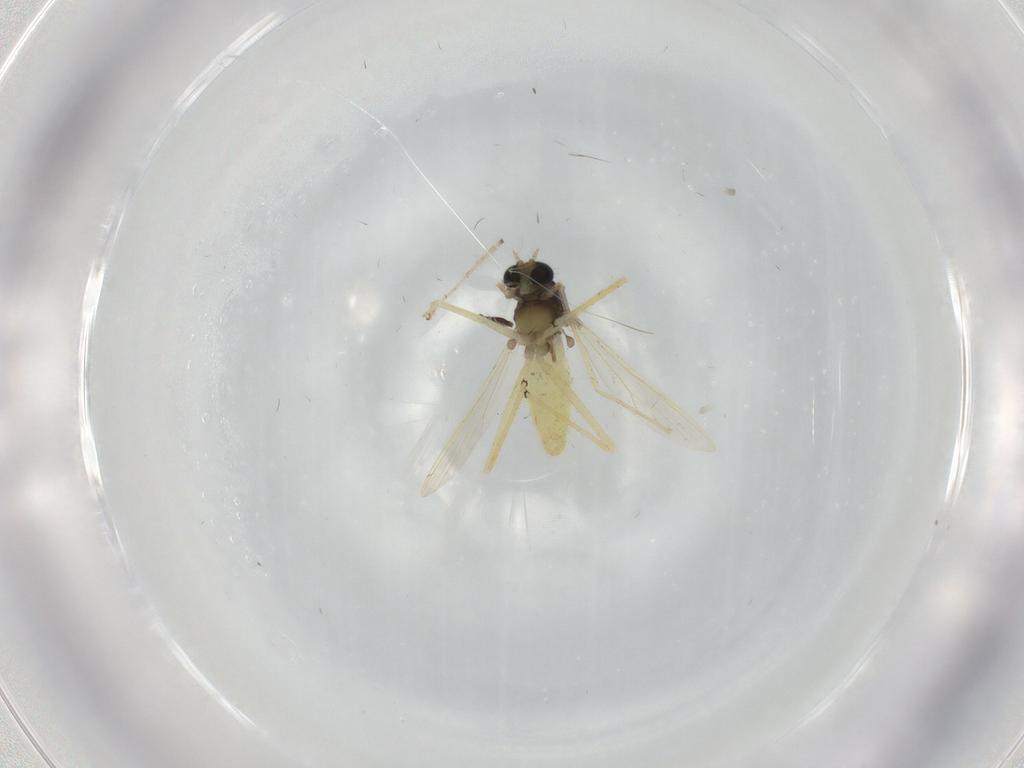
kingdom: Animalia
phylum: Arthropoda
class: Insecta
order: Diptera
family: Chironomidae
